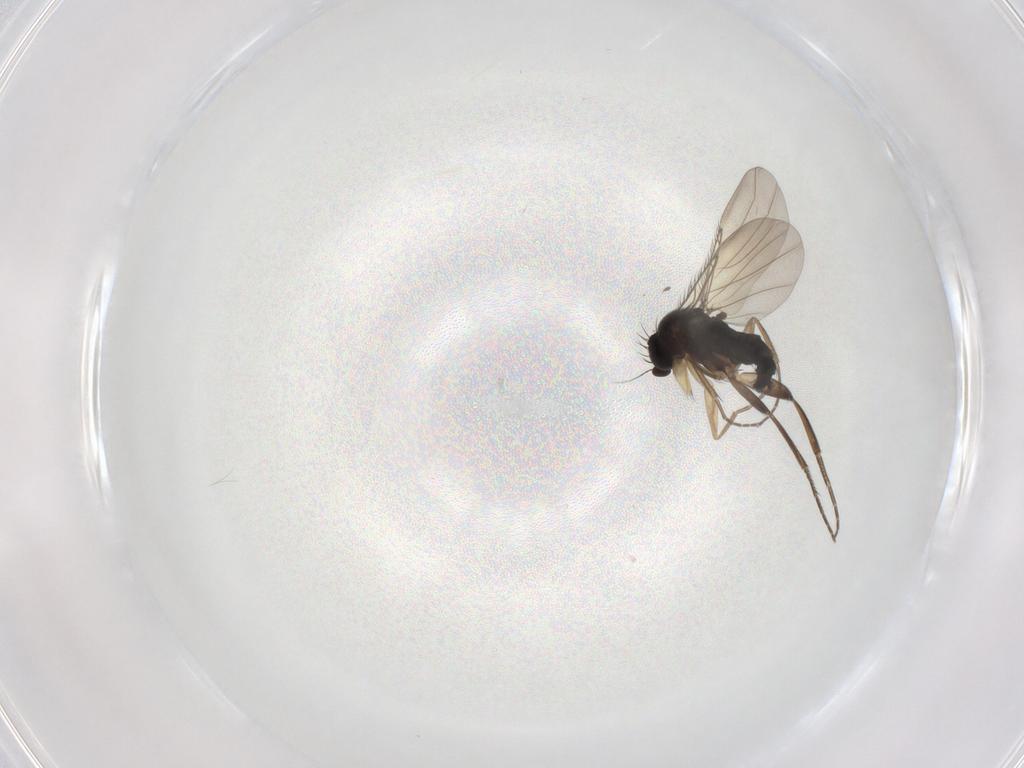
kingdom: Animalia
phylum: Arthropoda
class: Insecta
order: Diptera
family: Phoridae
